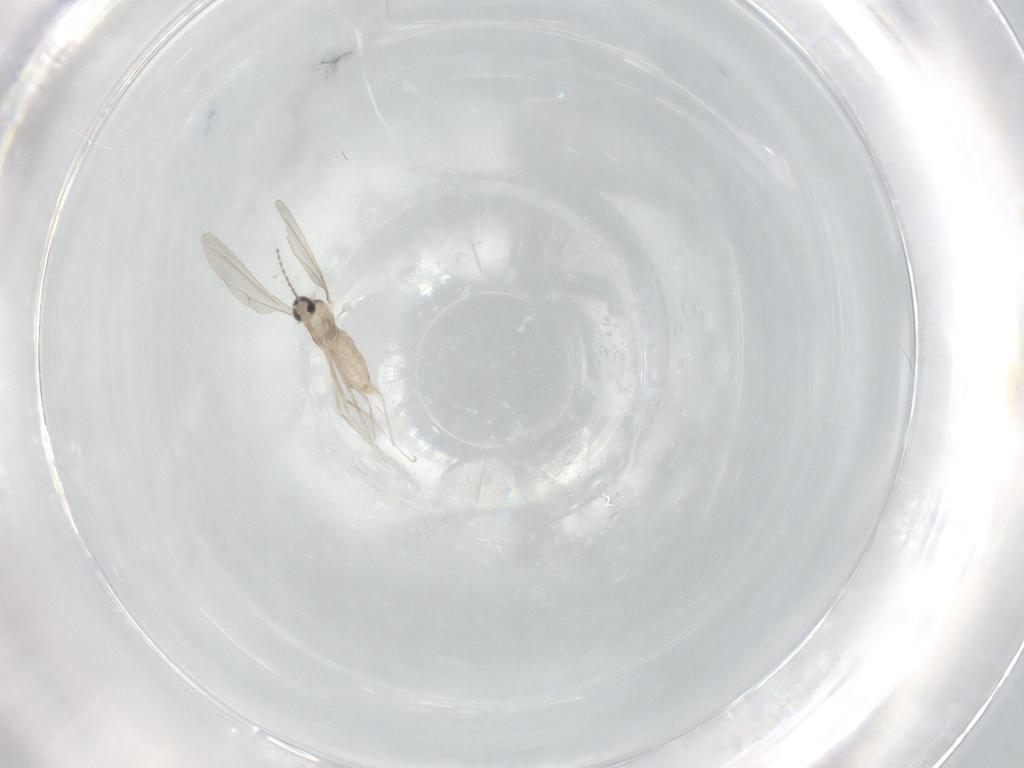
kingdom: Animalia
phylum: Arthropoda
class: Insecta
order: Diptera
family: Cecidomyiidae
